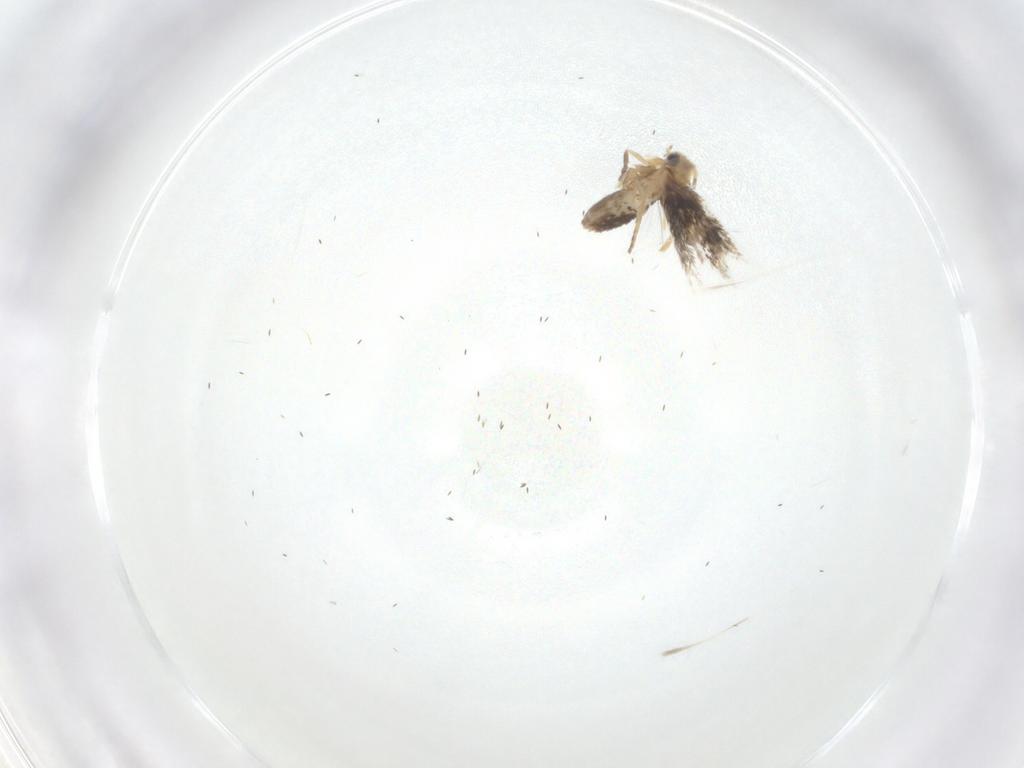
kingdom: Animalia
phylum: Arthropoda
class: Insecta
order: Lepidoptera
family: Nepticulidae
